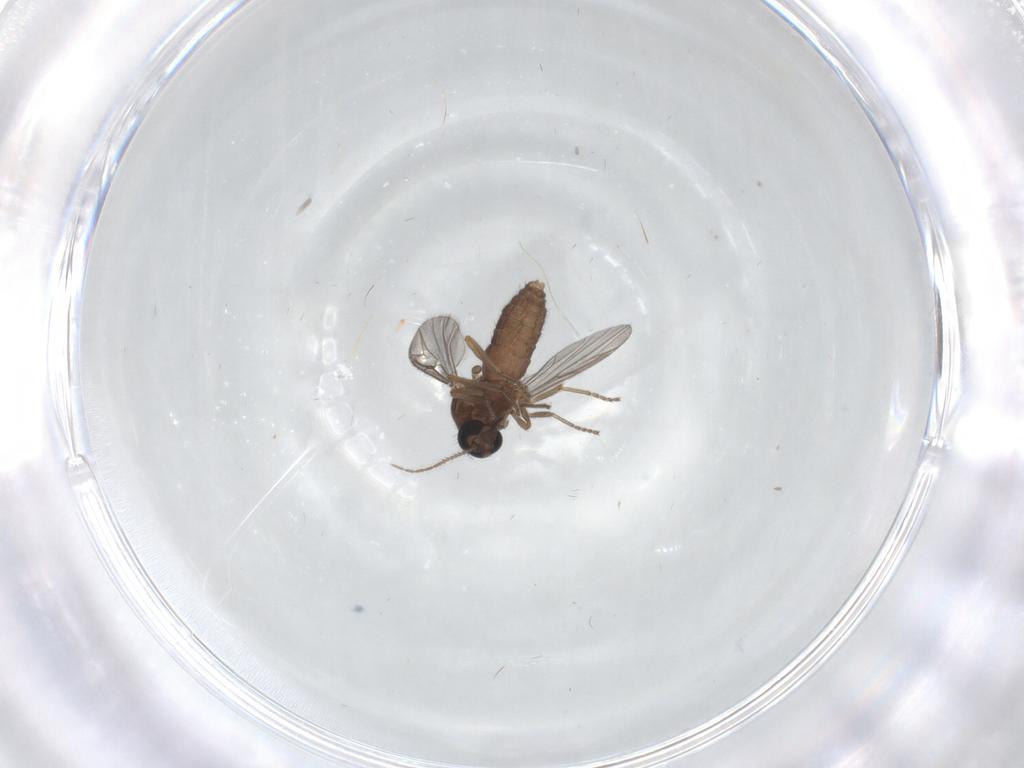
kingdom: Animalia
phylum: Arthropoda
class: Insecta
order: Diptera
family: Ceratopogonidae
